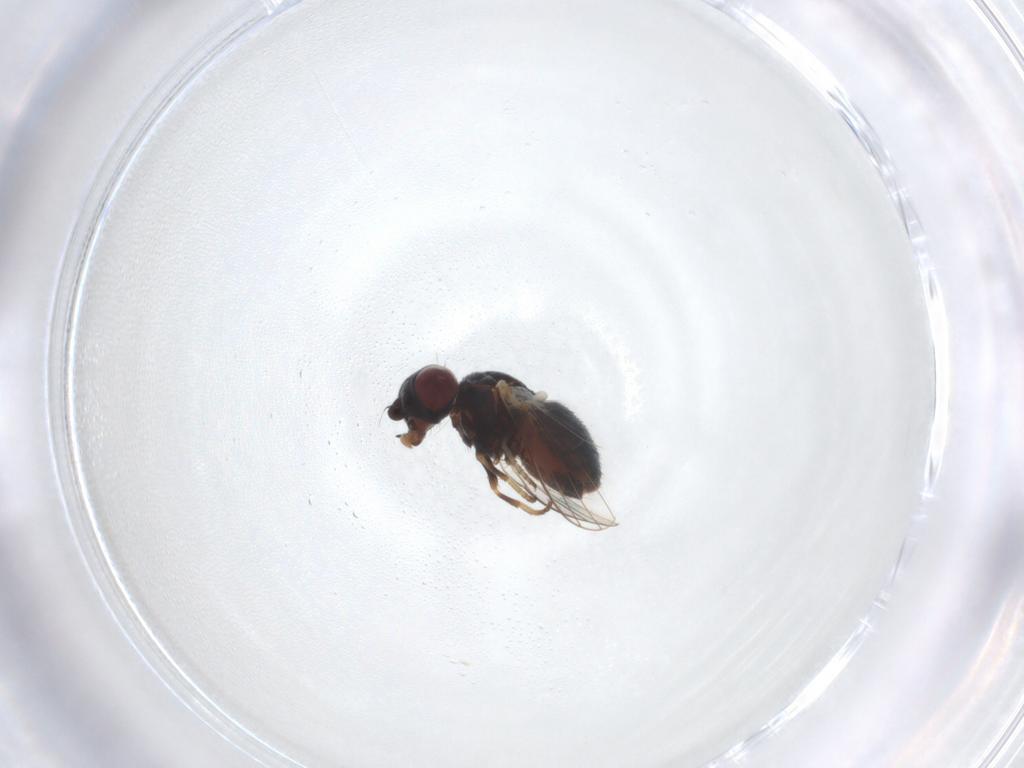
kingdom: Animalia
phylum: Arthropoda
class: Insecta
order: Diptera
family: Chamaemyiidae
